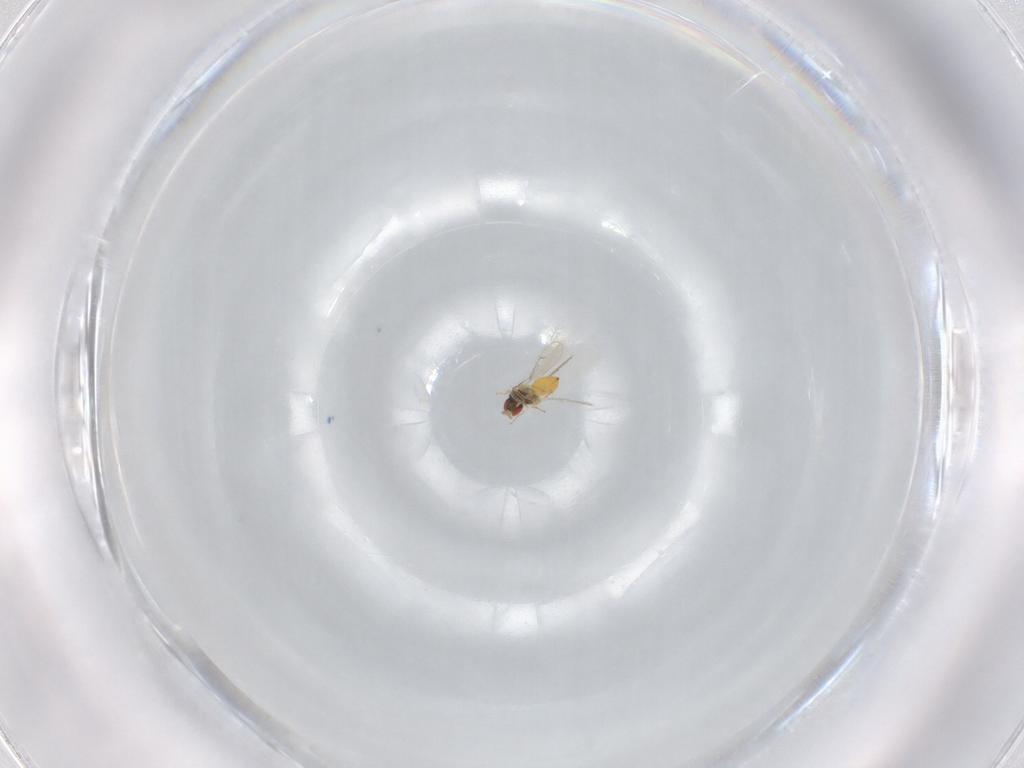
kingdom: Animalia
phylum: Arthropoda
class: Insecta
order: Hymenoptera
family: Eulophidae
